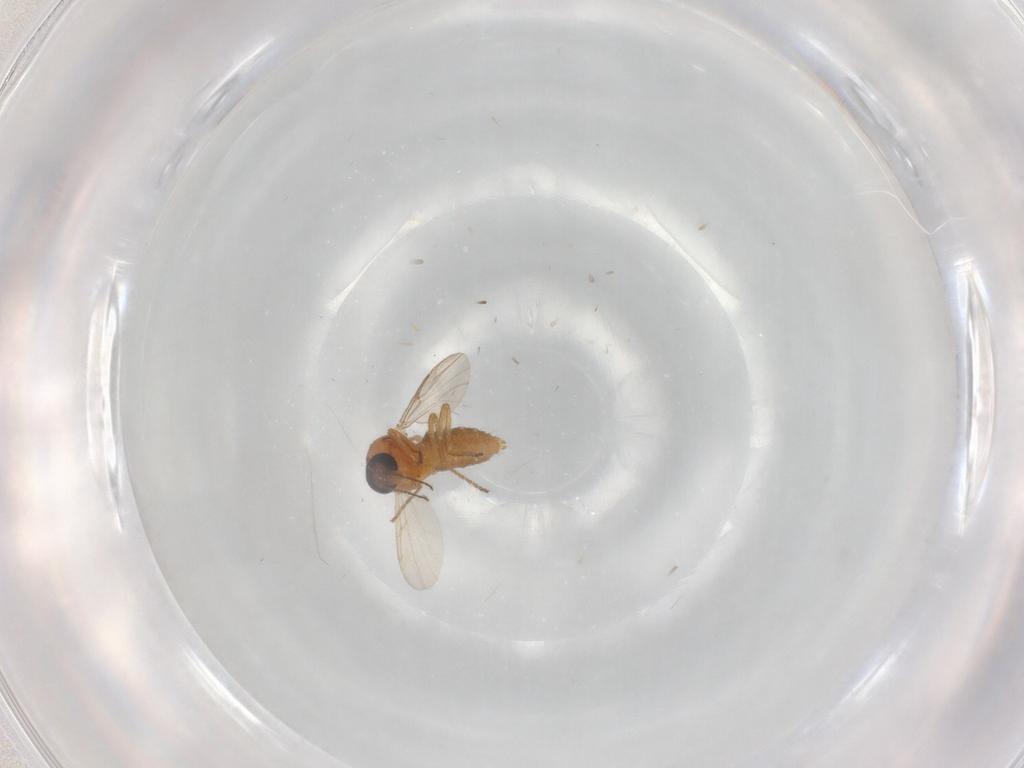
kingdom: Animalia
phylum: Arthropoda
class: Insecta
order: Diptera
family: Ceratopogonidae
